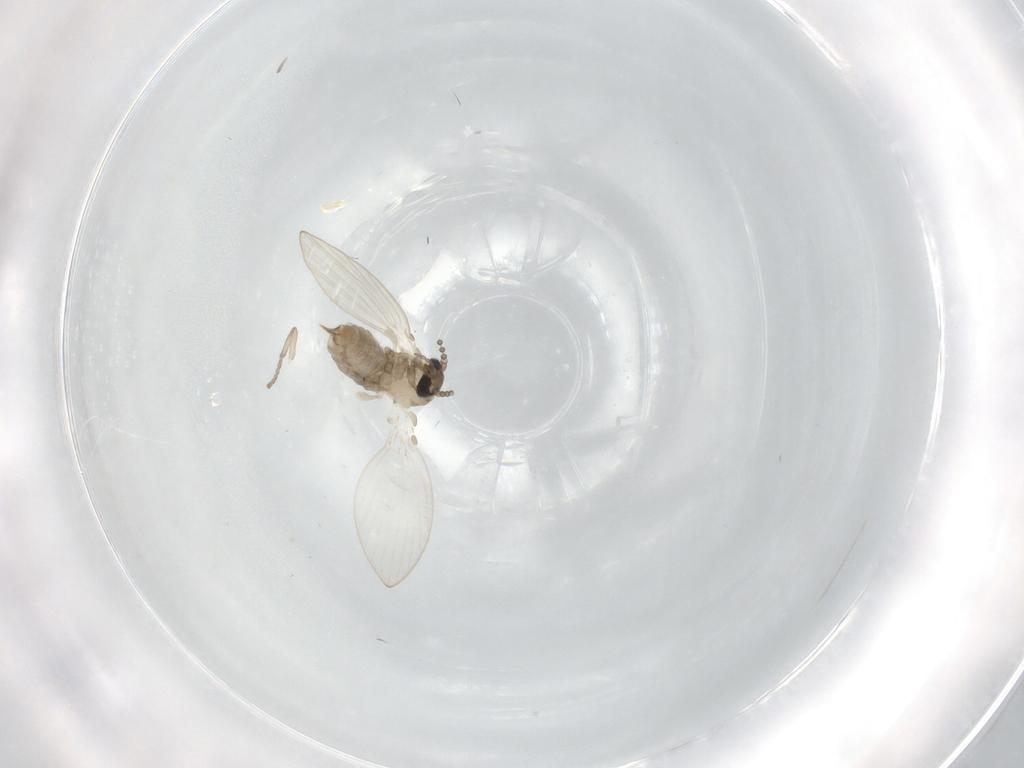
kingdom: Animalia
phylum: Arthropoda
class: Insecta
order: Diptera
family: Psychodidae
